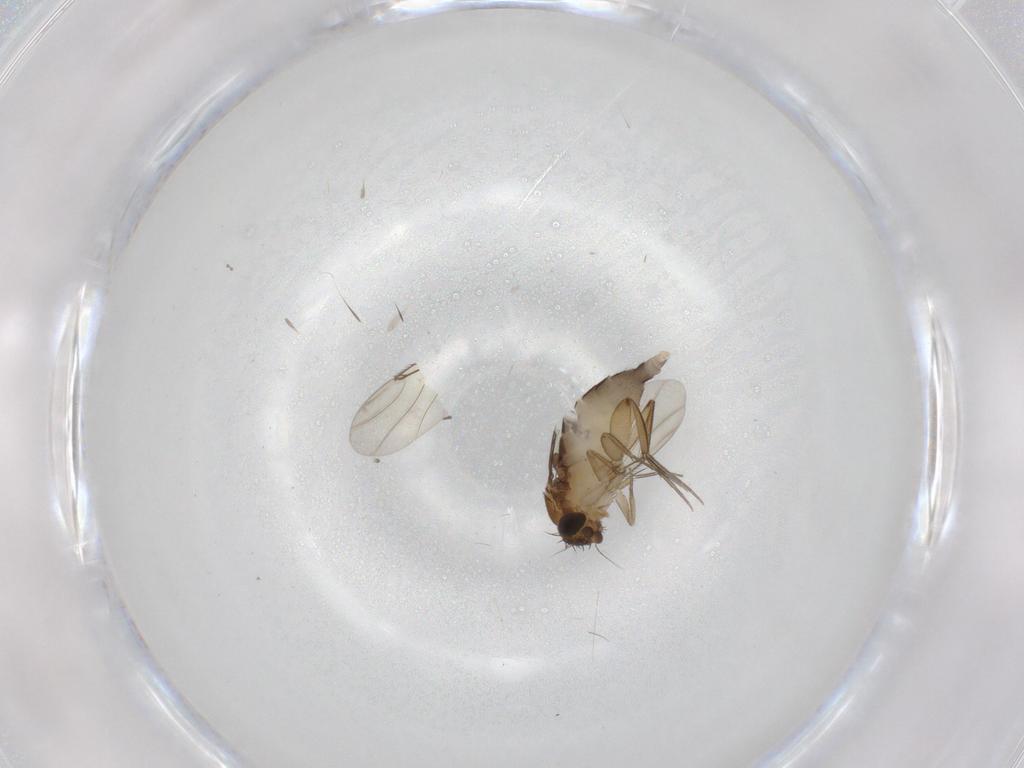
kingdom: Animalia
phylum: Arthropoda
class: Insecta
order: Diptera
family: Phoridae
